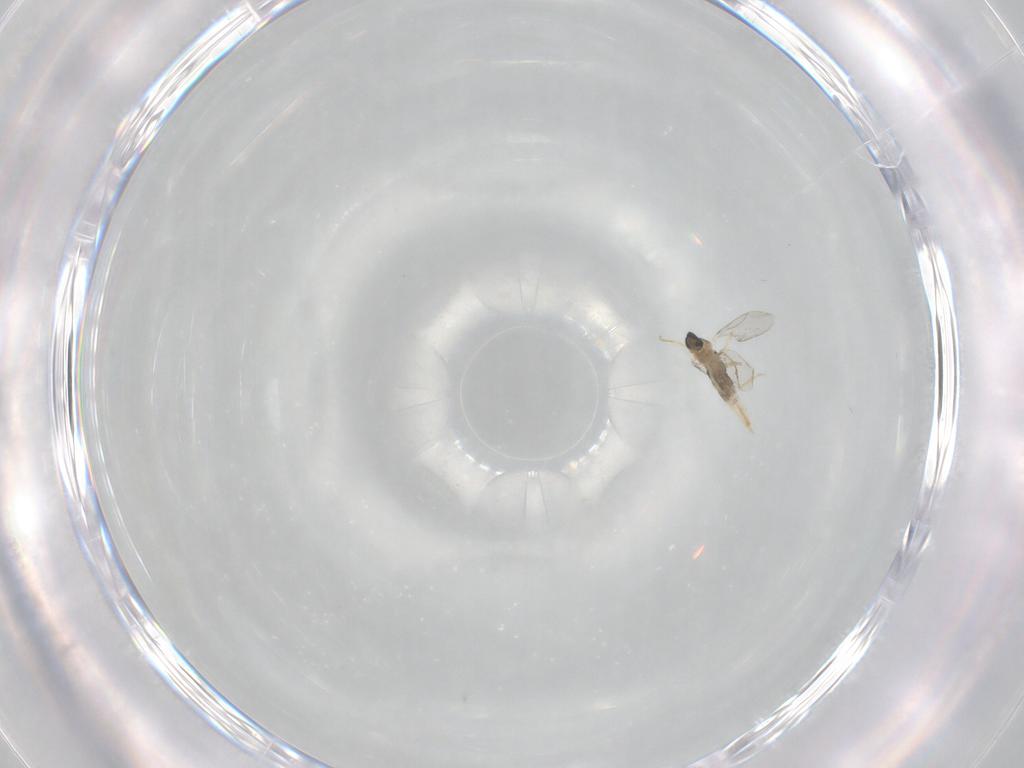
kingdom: Animalia
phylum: Arthropoda
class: Insecta
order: Diptera
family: Cecidomyiidae
